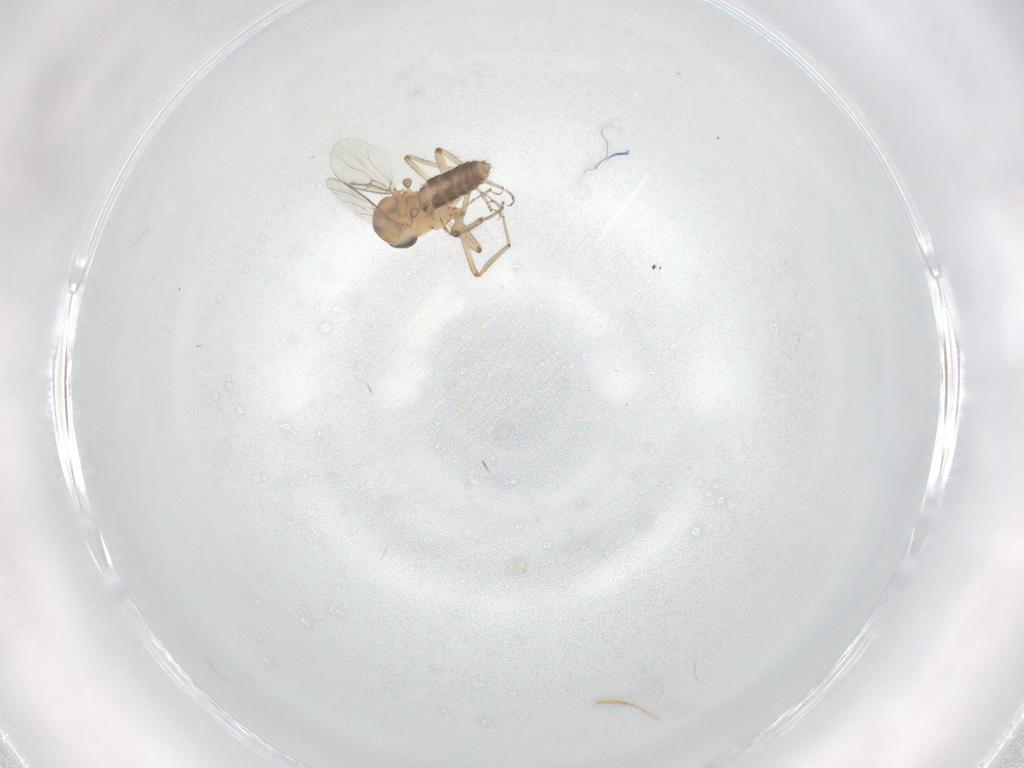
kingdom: Animalia
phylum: Arthropoda
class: Insecta
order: Diptera
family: Ceratopogonidae
